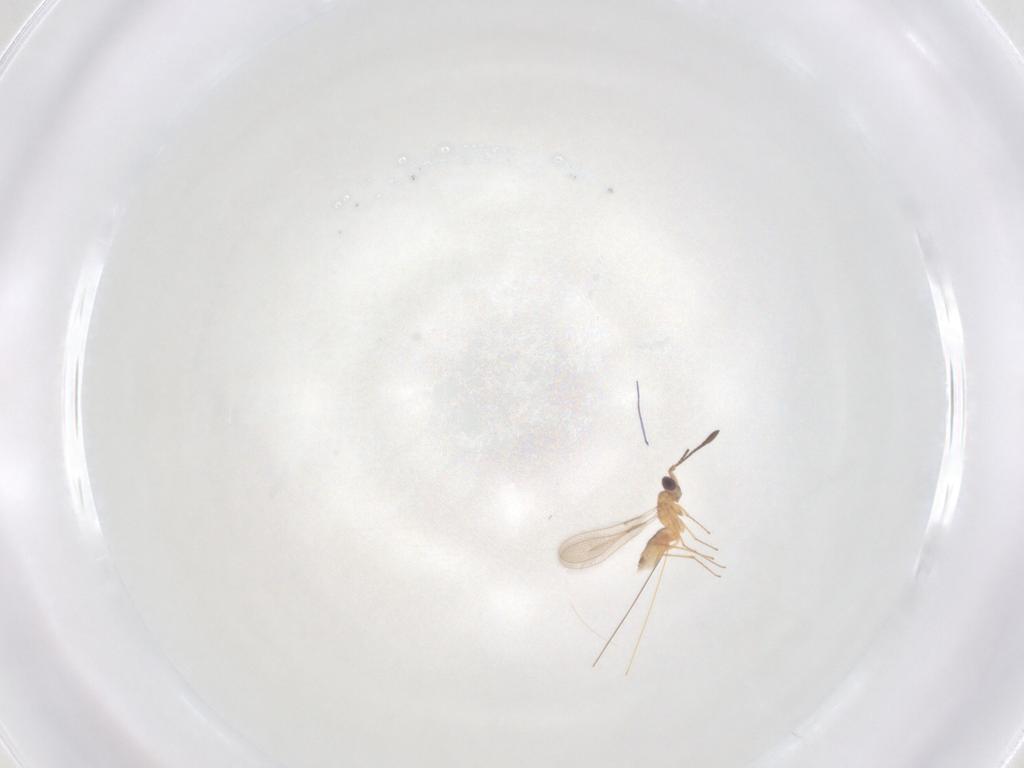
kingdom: Animalia
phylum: Arthropoda
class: Insecta
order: Hymenoptera
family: Mymaridae
